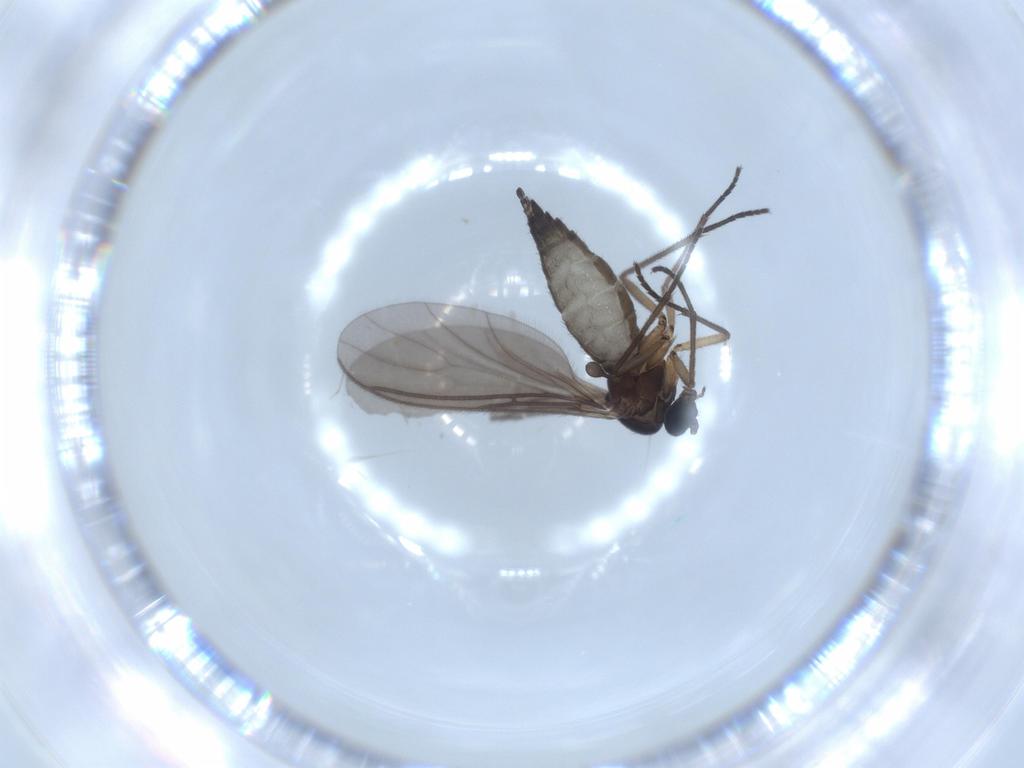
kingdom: Animalia
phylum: Arthropoda
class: Insecta
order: Diptera
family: Sciaridae
